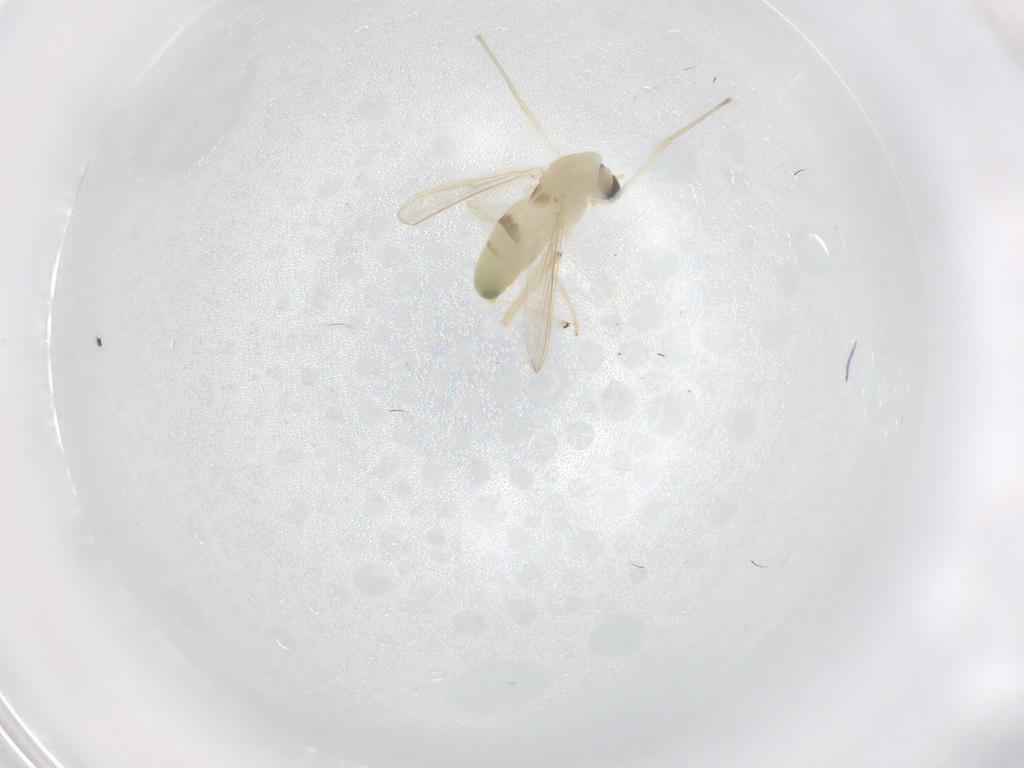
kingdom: Animalia
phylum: Arthropoda
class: Insecta
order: Diptera
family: Chironomidae
